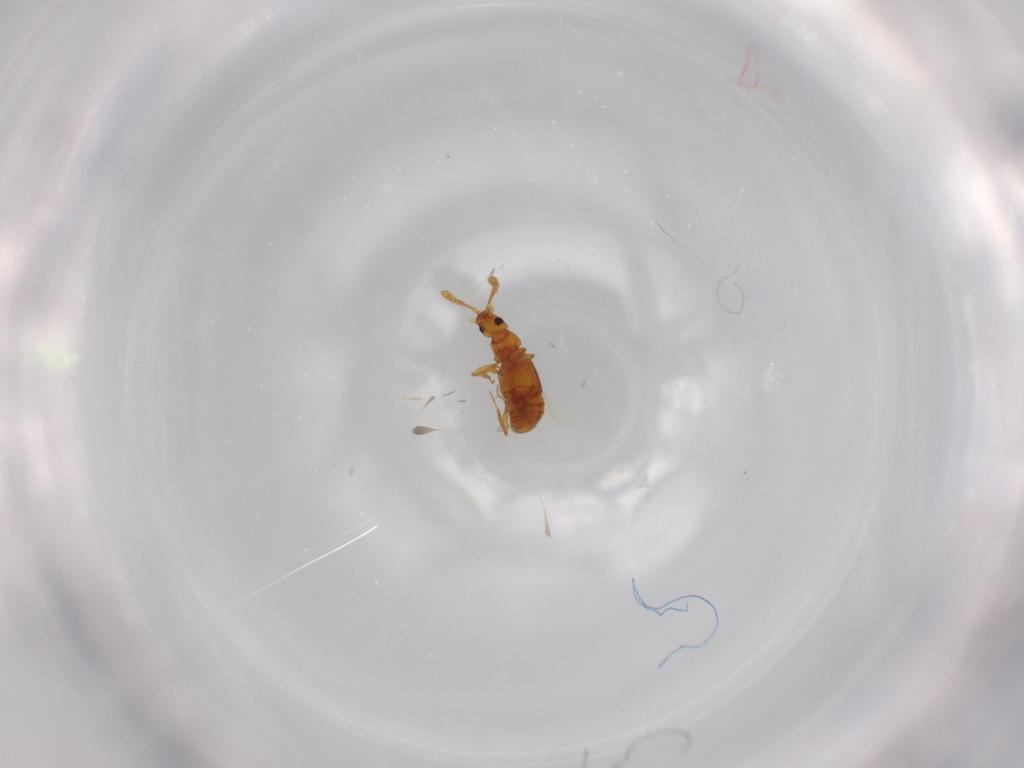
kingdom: Animalia
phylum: Arthropoda
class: Insecta
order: Coleoptera
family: Staphylinidae
